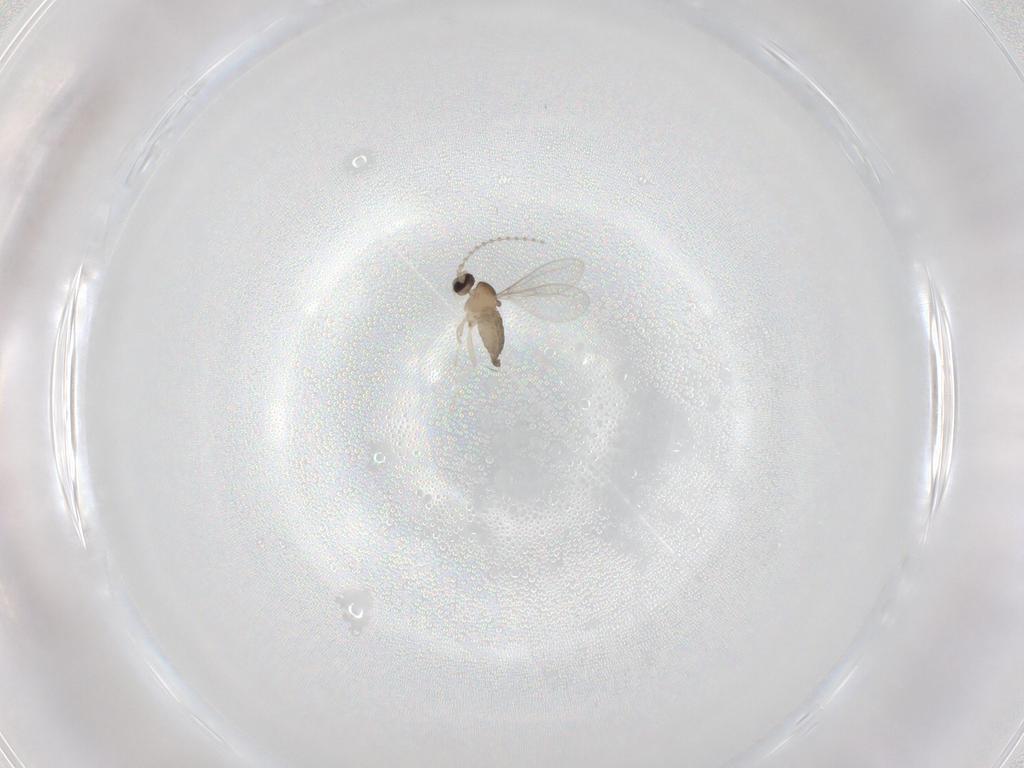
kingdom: Animalia
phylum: Arthropoda
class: Insecta
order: Diptera
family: Cecidomyiidae
